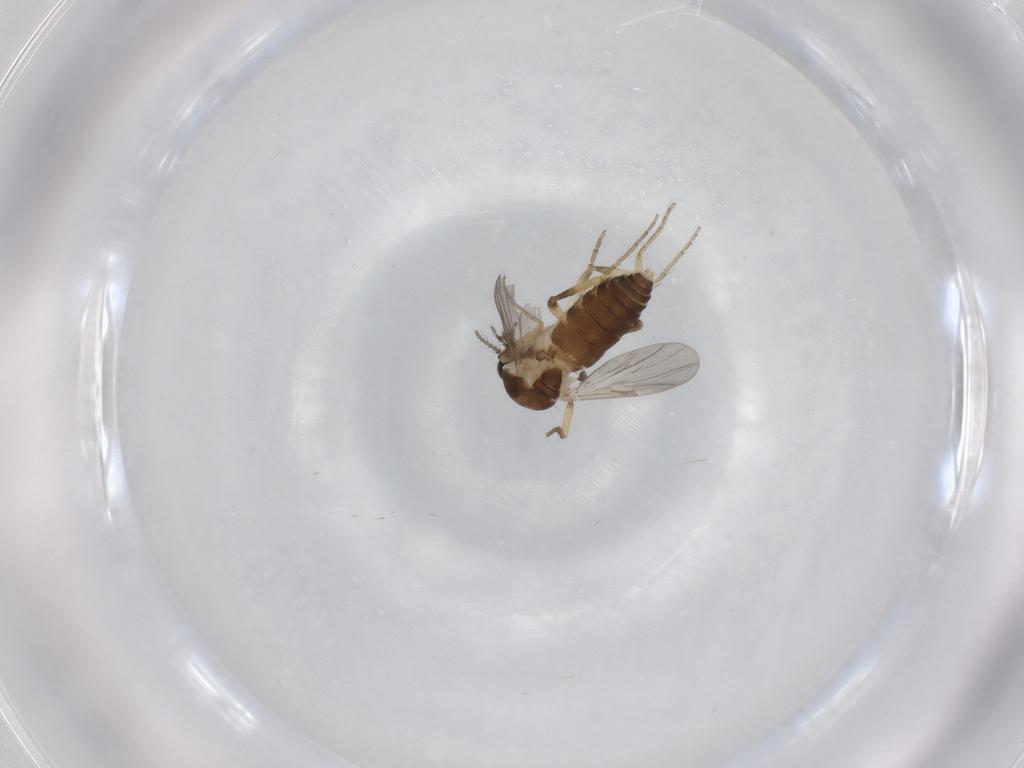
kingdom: Animalia
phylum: Arthropoda
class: Insecta
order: Diptera
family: Ceratopogonidae
